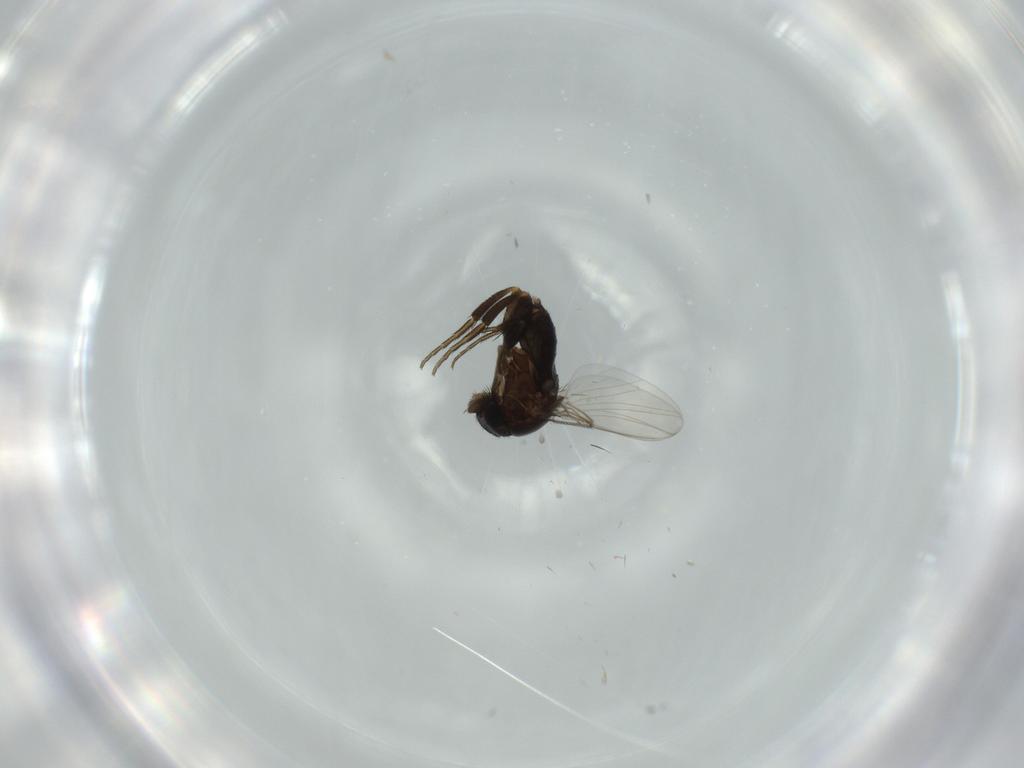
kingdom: Animalia
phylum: Arthropoda
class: Insecta
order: Diptera
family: Phoridae
